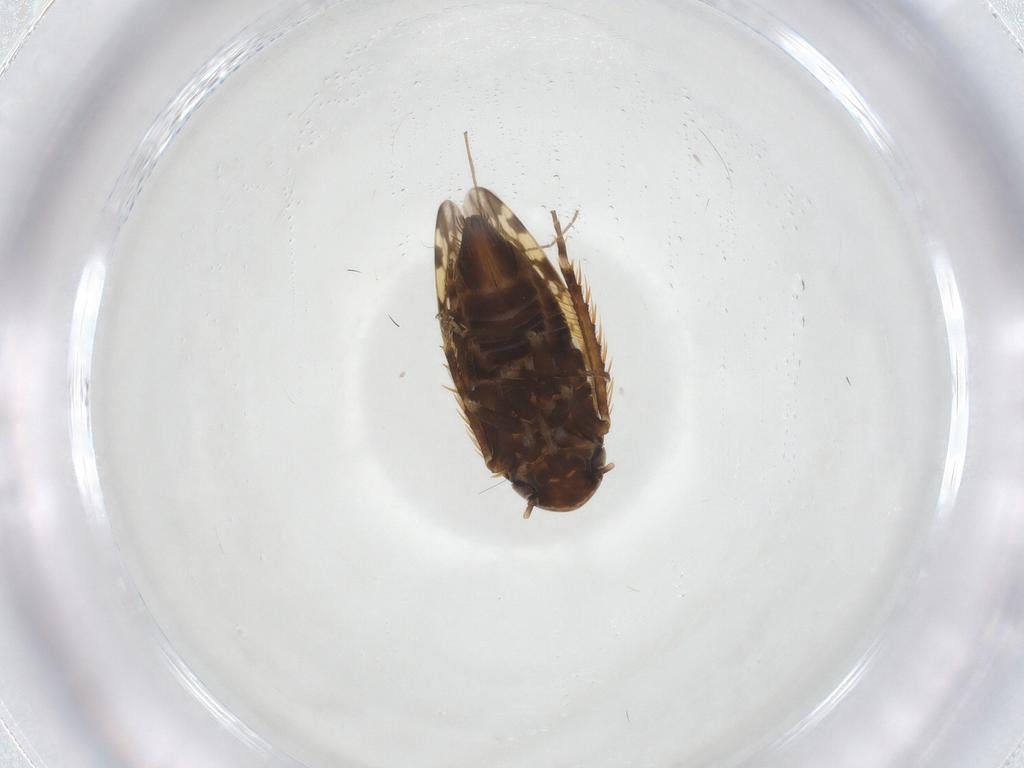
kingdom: Animalia
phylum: Arthropoda
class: Insecta
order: Hemiptera
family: Cicadellidae
